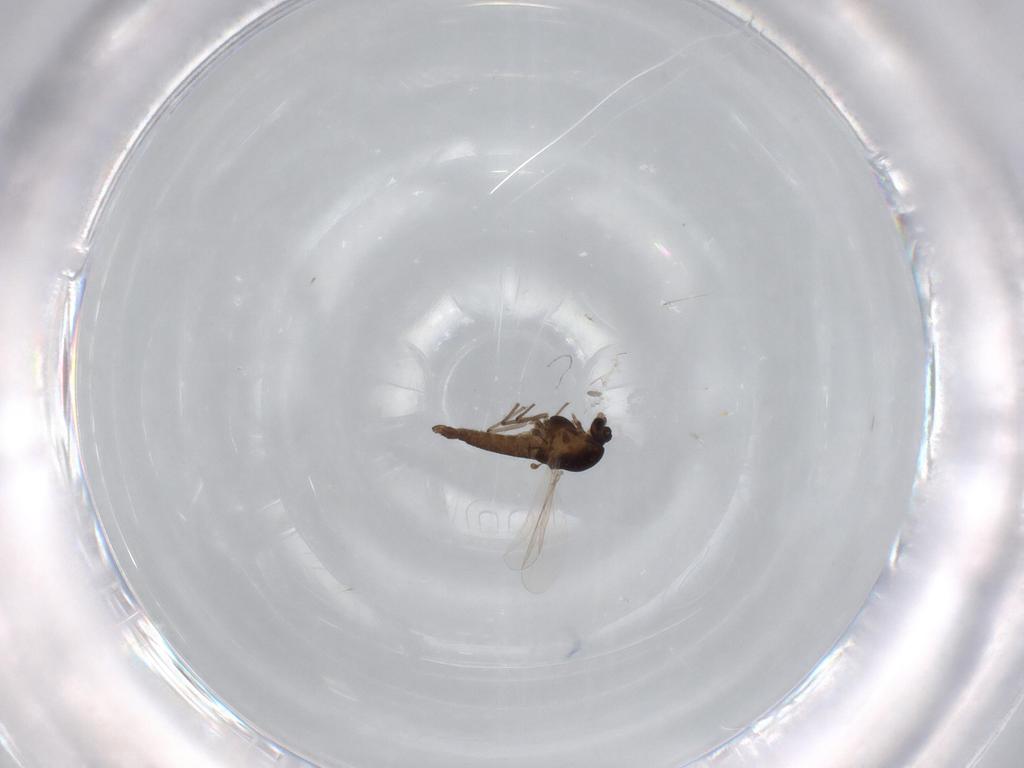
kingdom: Animalia
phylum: Arthropoda
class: Insecta
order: Diptera
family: Chironomidae
